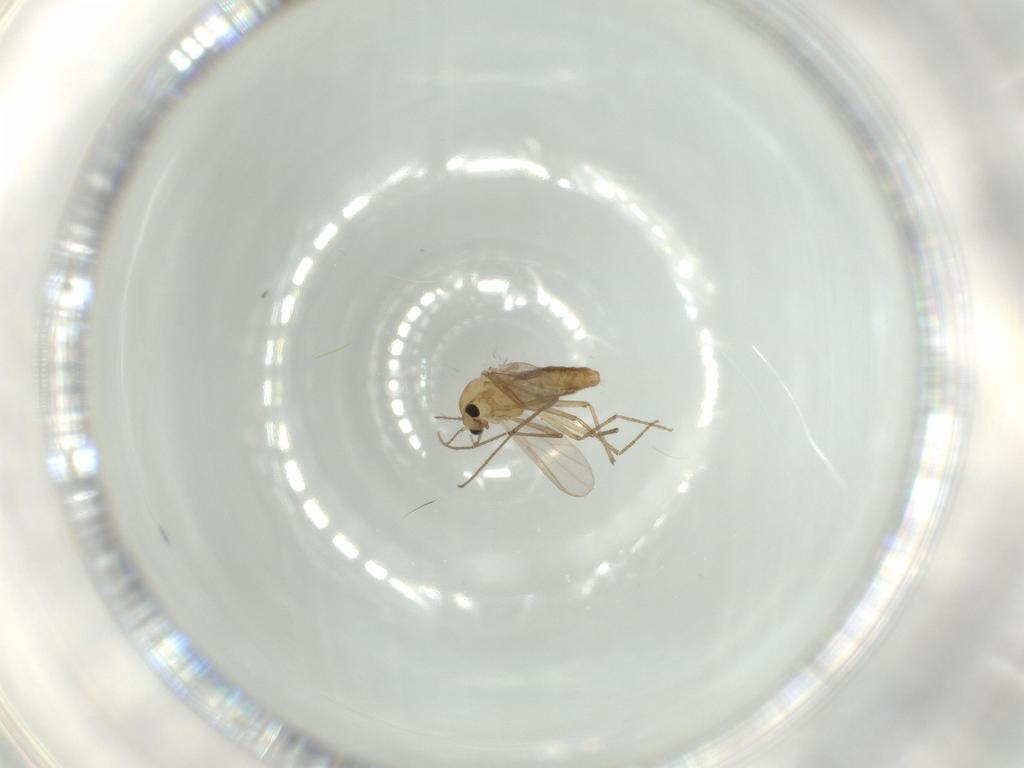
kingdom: Animalia
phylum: Arthropoda
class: Insecta
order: Diptera
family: Chironomidae
